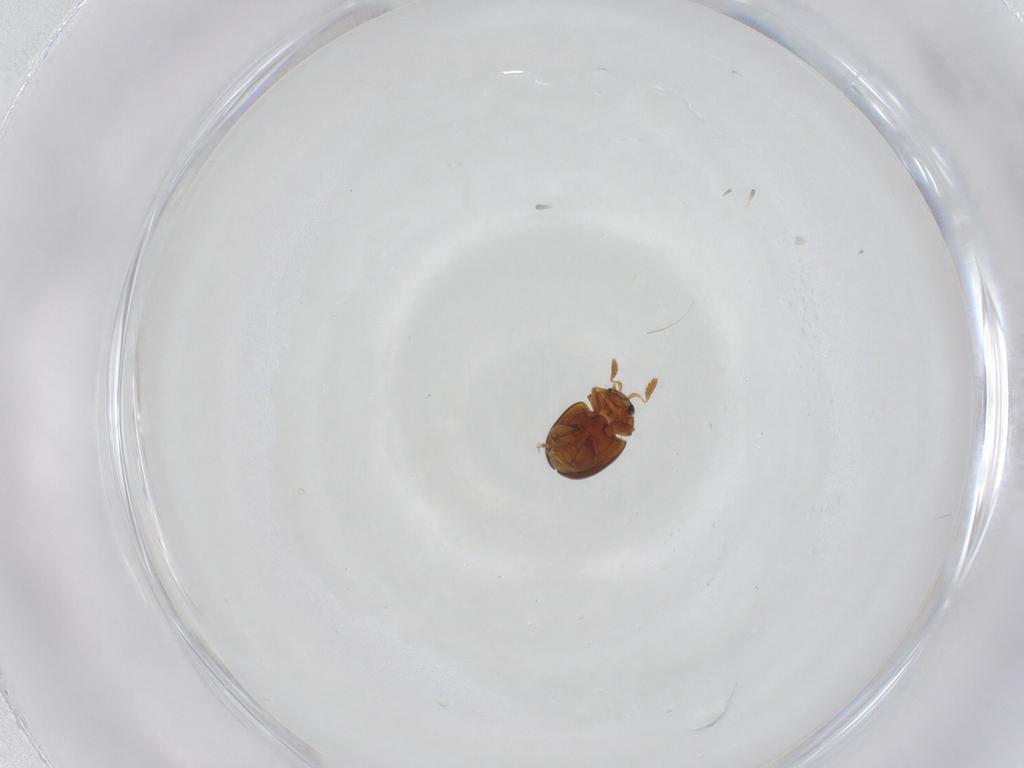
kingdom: Animalia
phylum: Arthropoda
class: Insecta
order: Coleoptera
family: Chrysomelidae
